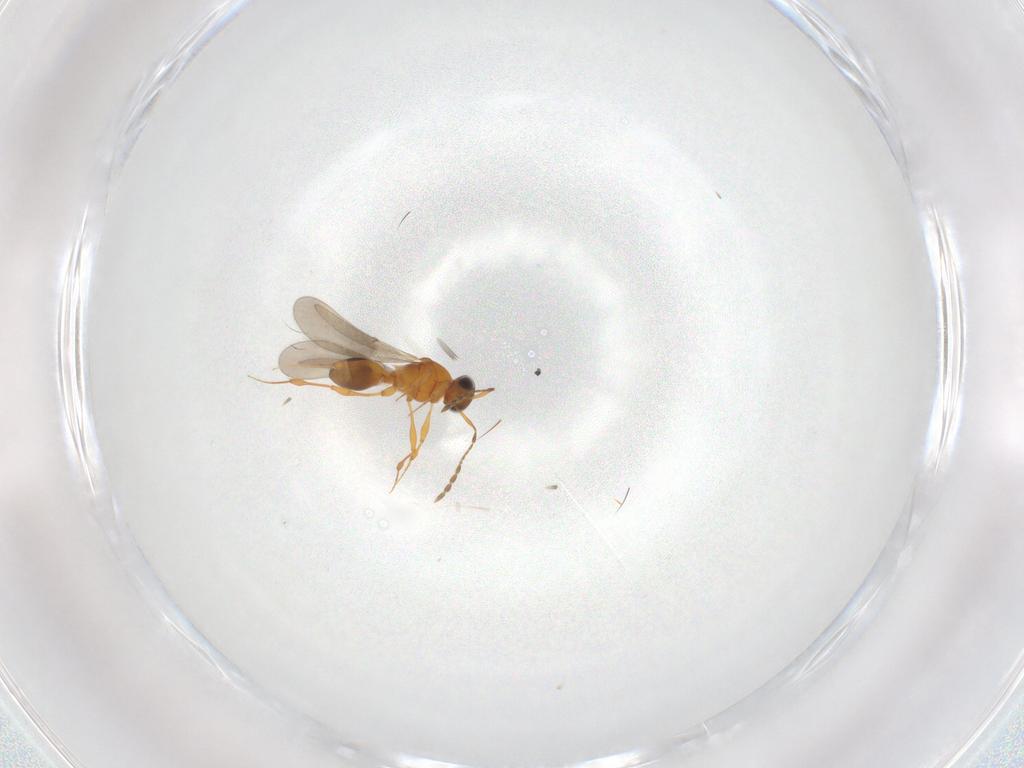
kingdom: Animalia
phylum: Arthropoda
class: Insecta
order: Hymenoptera
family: Platygastridae
